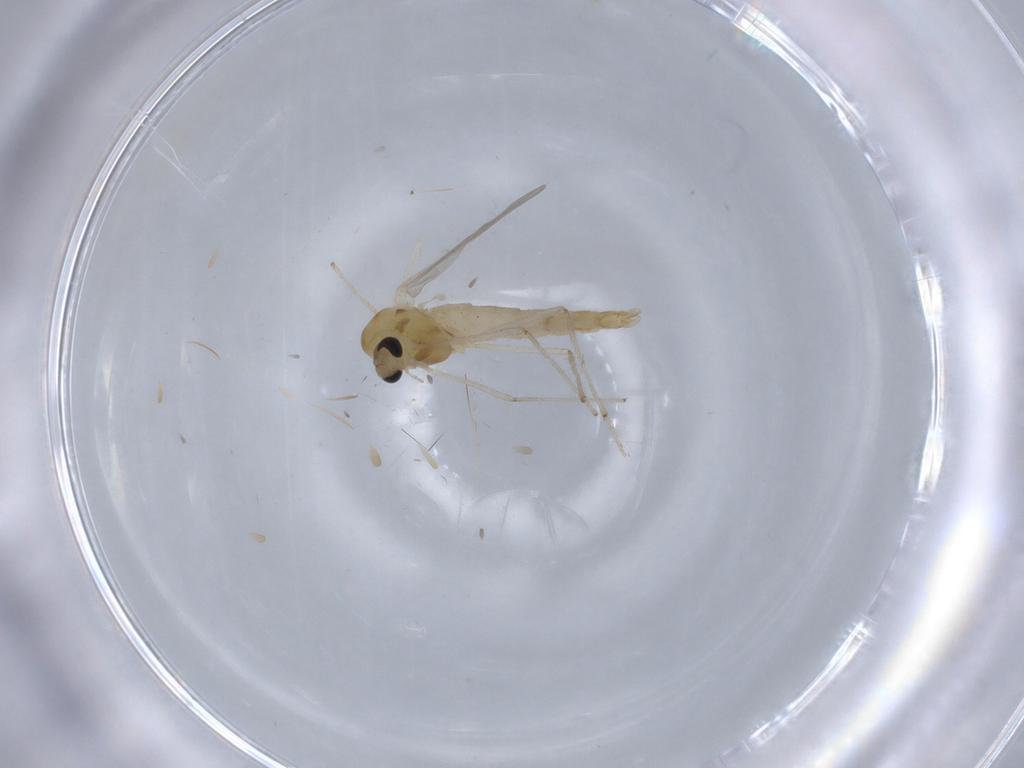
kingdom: Animalia
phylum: Arthropoda
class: Insecta
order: Diptera
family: Chironomidae
